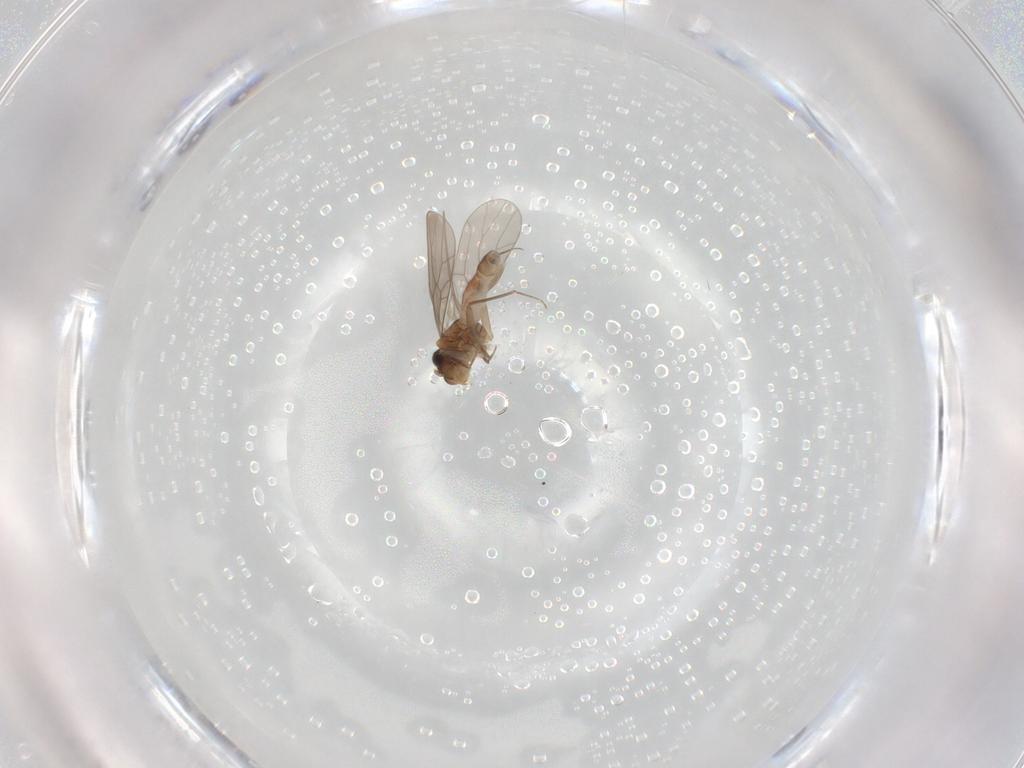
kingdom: Animalia
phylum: Arthropoda
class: Insecta
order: Psocodea
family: Lepidopsocidae
